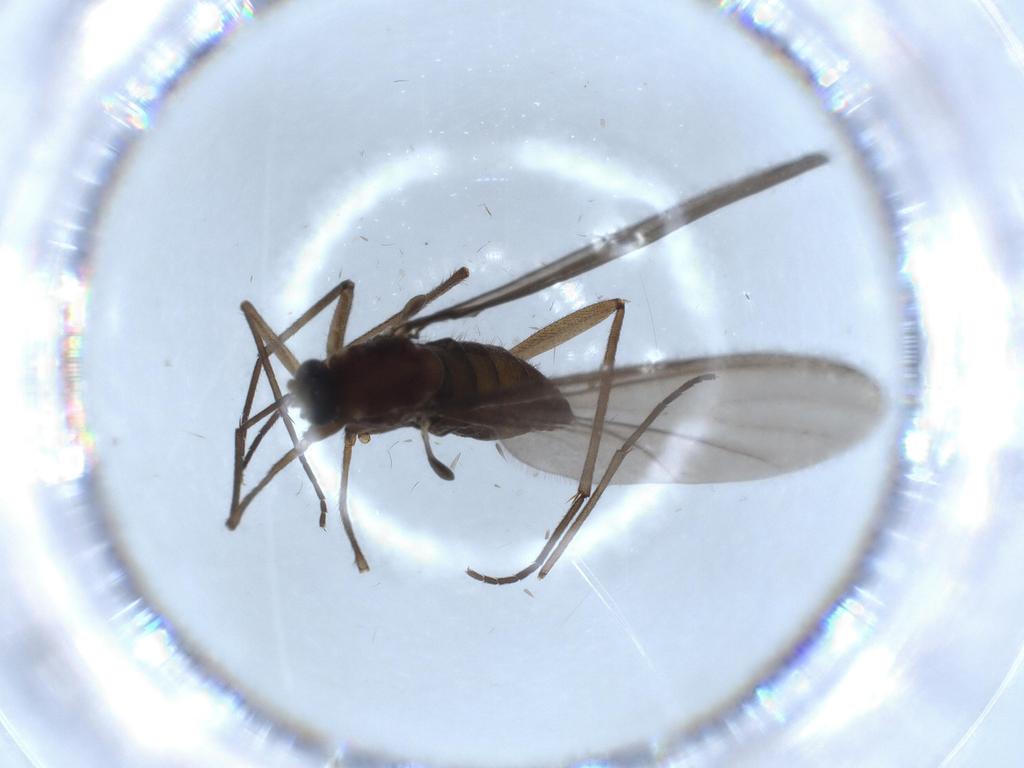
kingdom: Animalia
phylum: Arthropoda
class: Insecta
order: Diptera
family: Sciaridae
